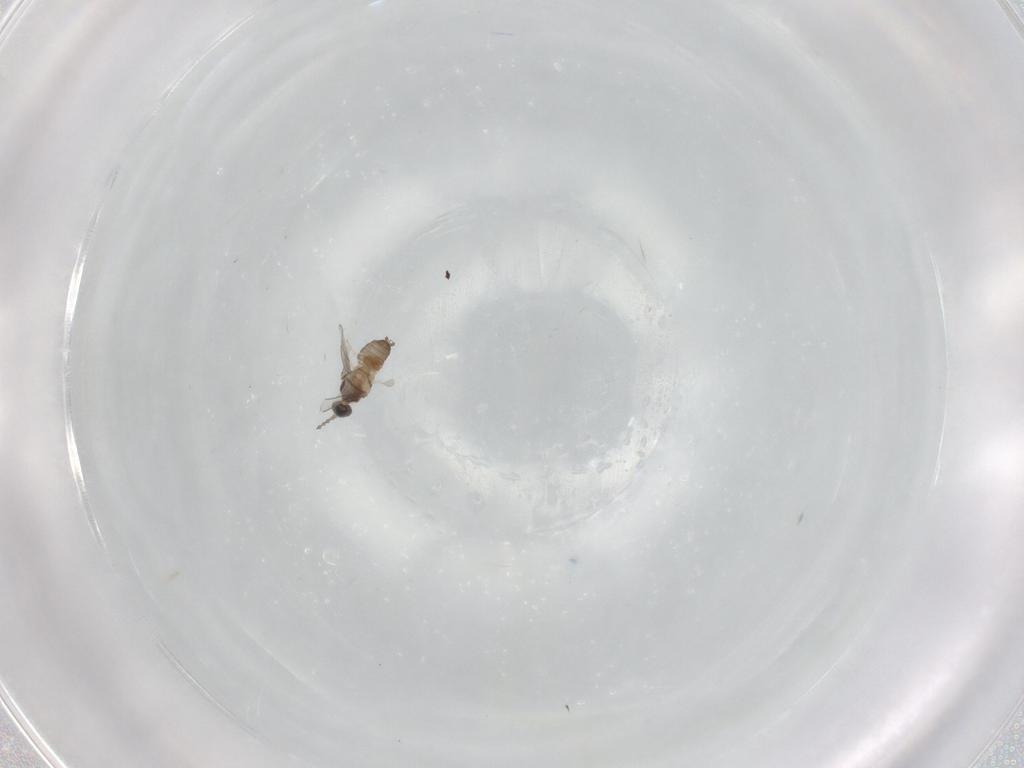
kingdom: Animalia
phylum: Arthropoda
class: Insecta
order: Diptera
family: Cecidomyiidae
